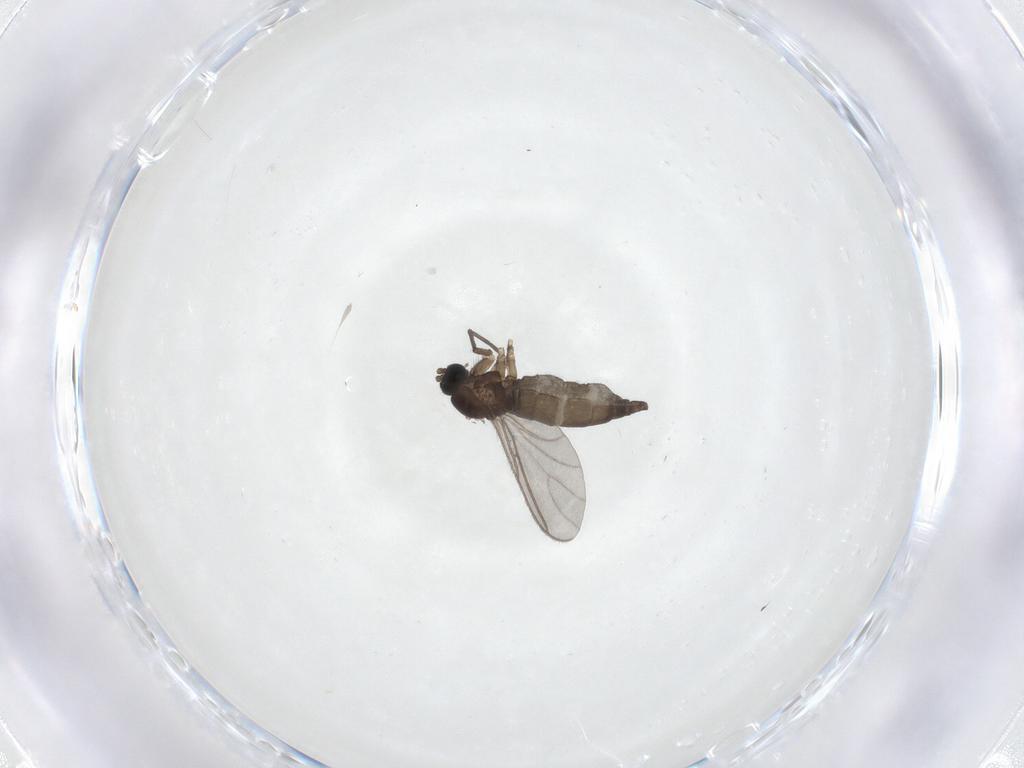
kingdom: Animalia
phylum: Arthropoda
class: Insecta
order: Diptera
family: Sciaridae
